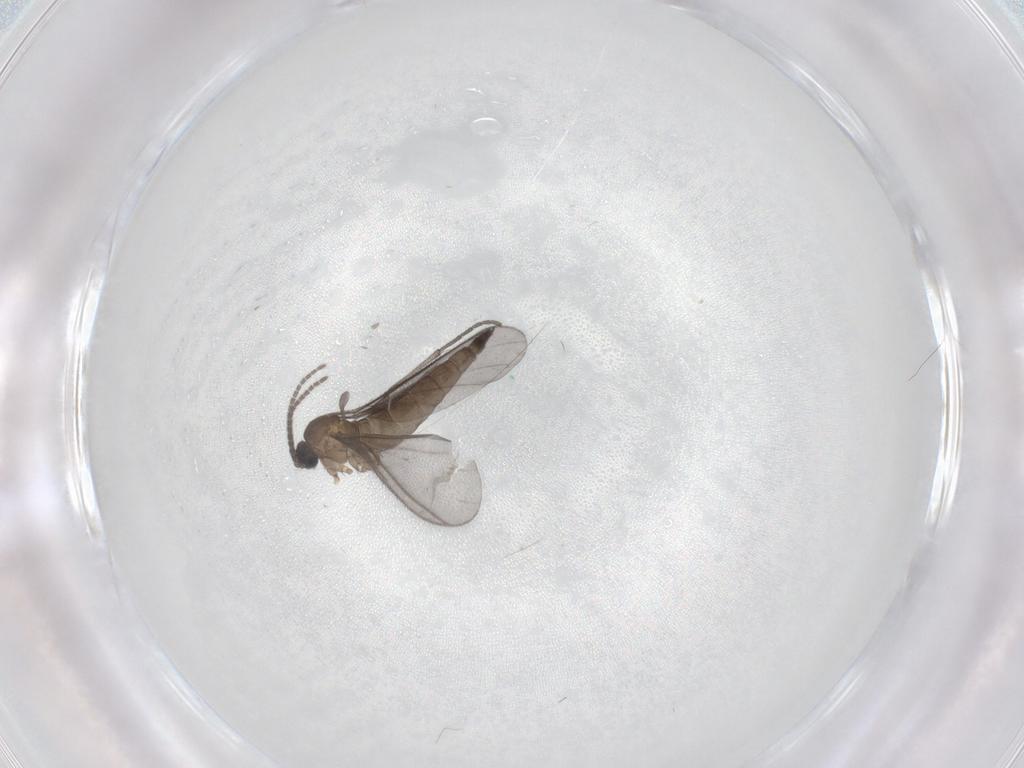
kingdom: Animalia
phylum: Arthropoda
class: Insecta
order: Diptera
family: Sciaridae
